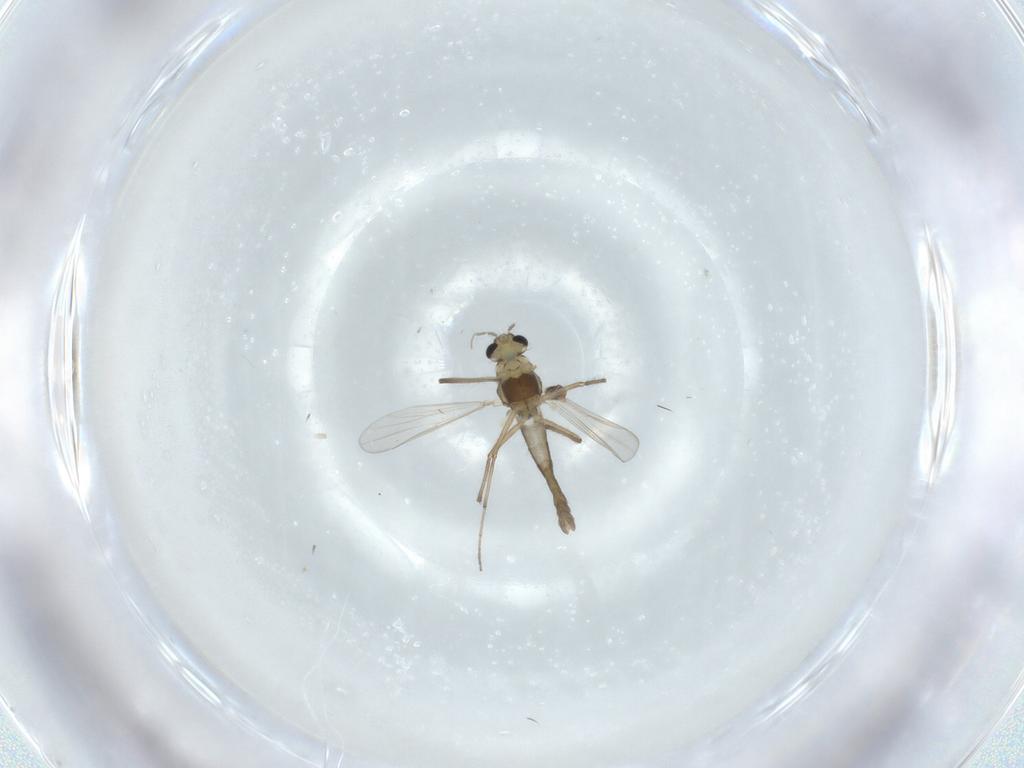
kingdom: Animalia
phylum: Arthropoda
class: Insecta
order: Diptera
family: Heleomyzidae
